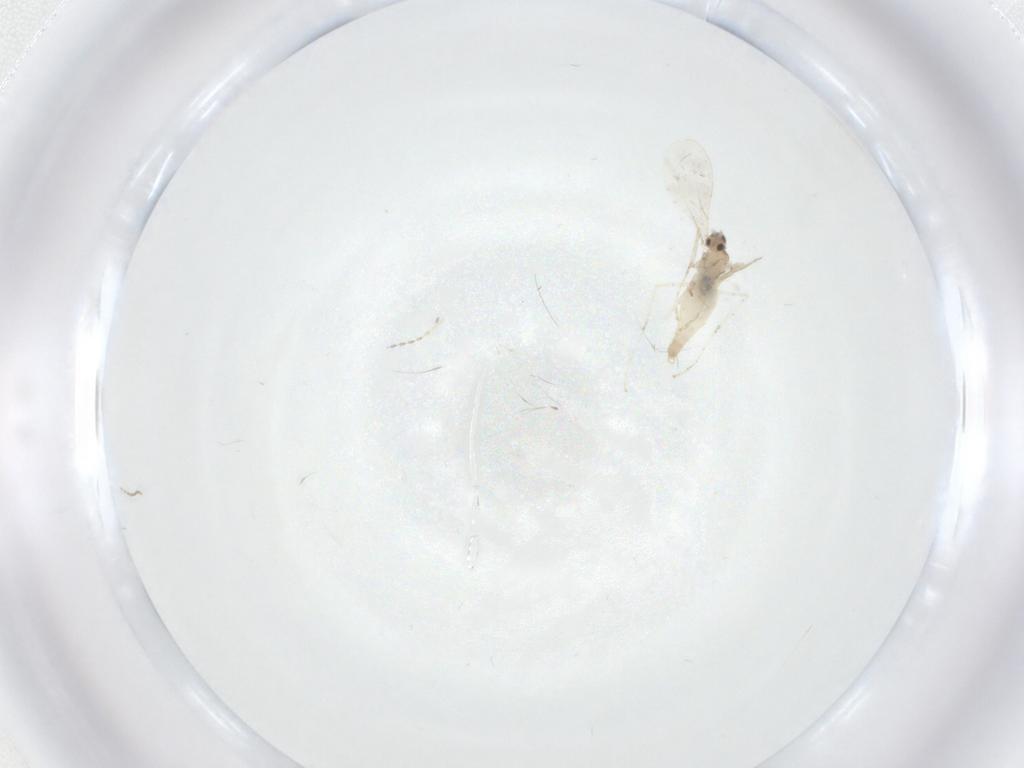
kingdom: Animalia
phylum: Arthropoda
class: Insecta
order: Diptera
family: Cecidomyiidae
